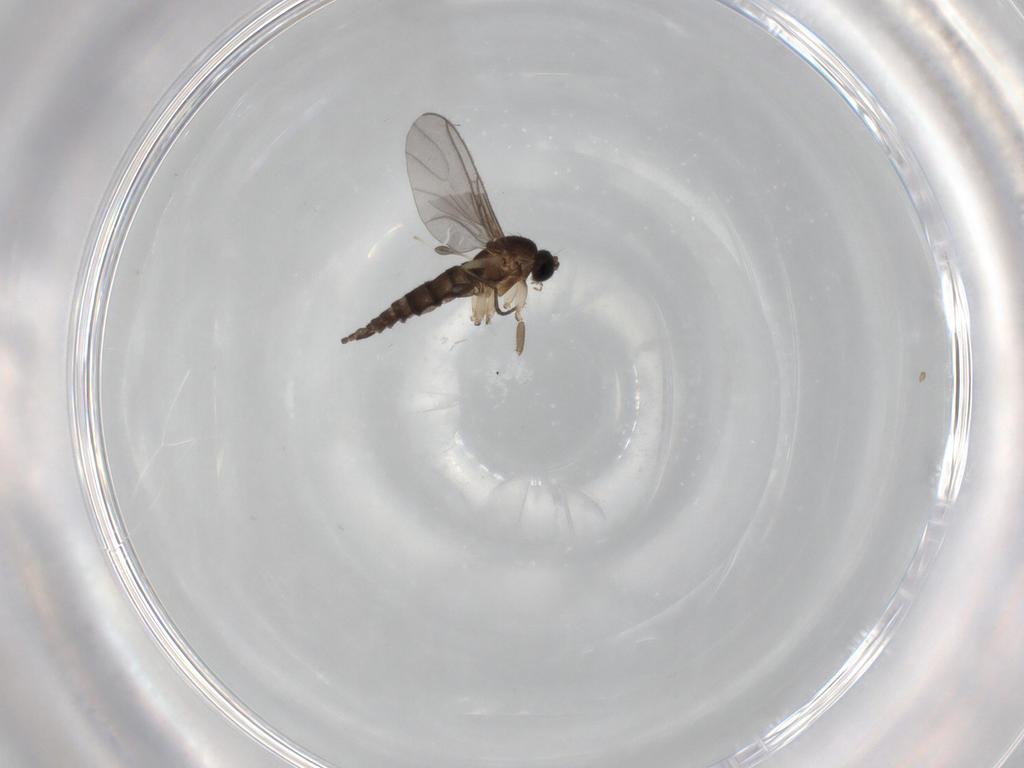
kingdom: Animalia
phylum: Arthropoda
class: Insecta
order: Diptera
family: Sciaridae
